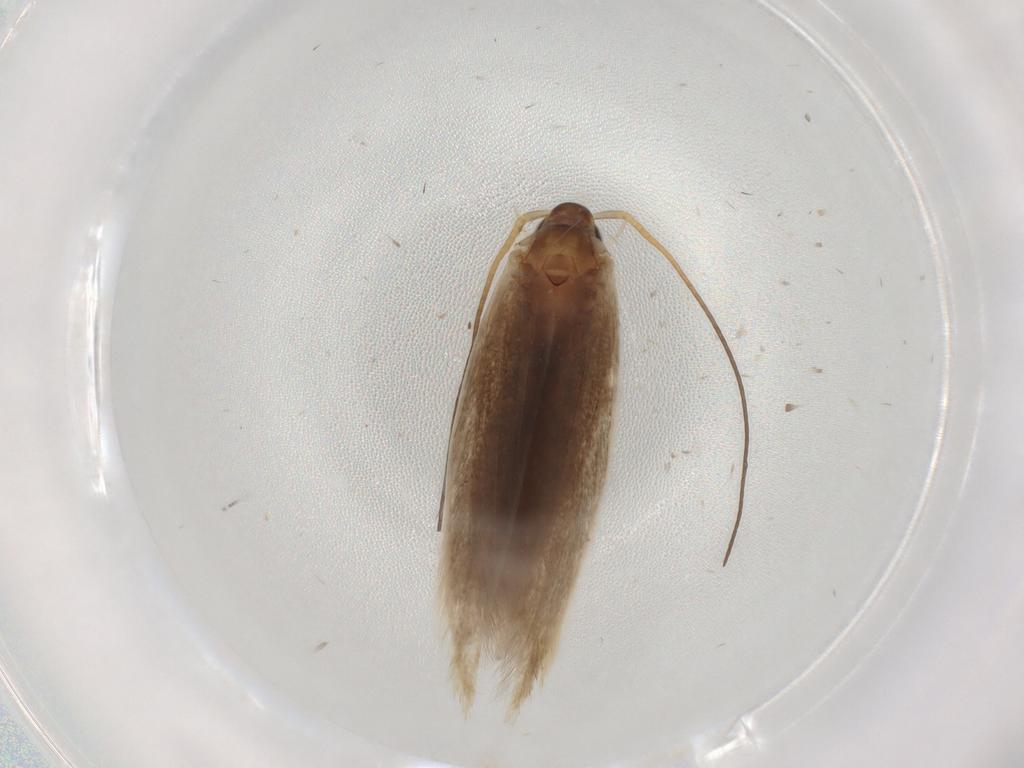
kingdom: Animalia
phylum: Arthropoda
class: Insecta
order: Lepidoptera
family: Coleophoridae
